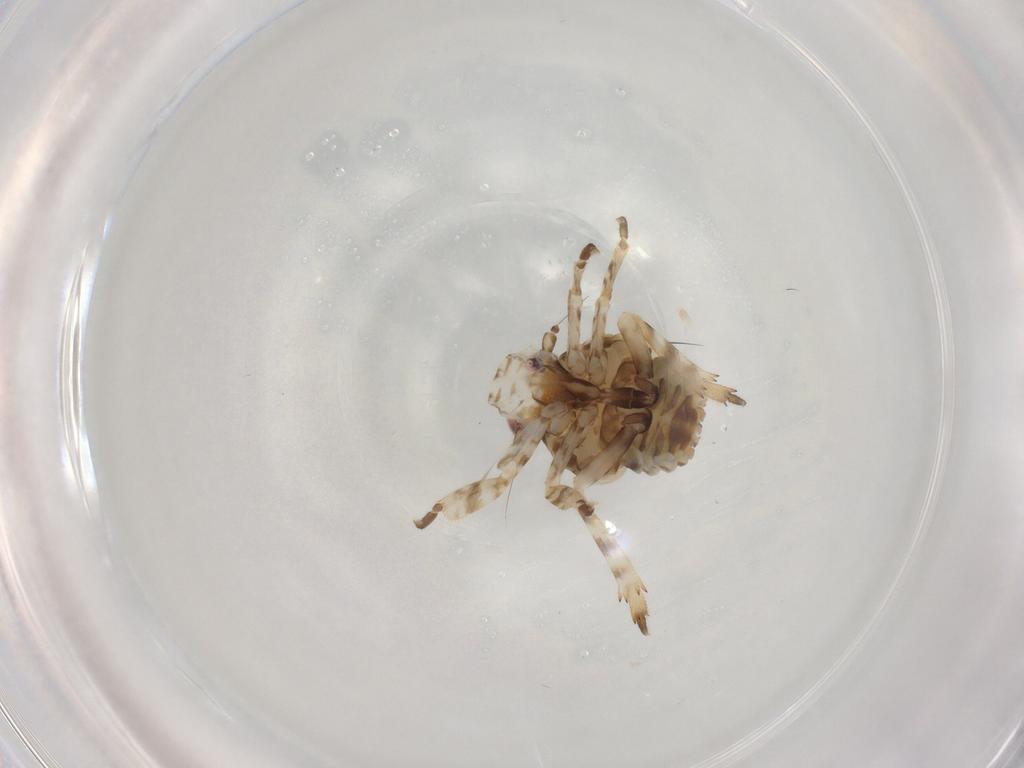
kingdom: Animalia
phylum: Arthropoda
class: Insecta
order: Hemiptera
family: Eurybrachidae
